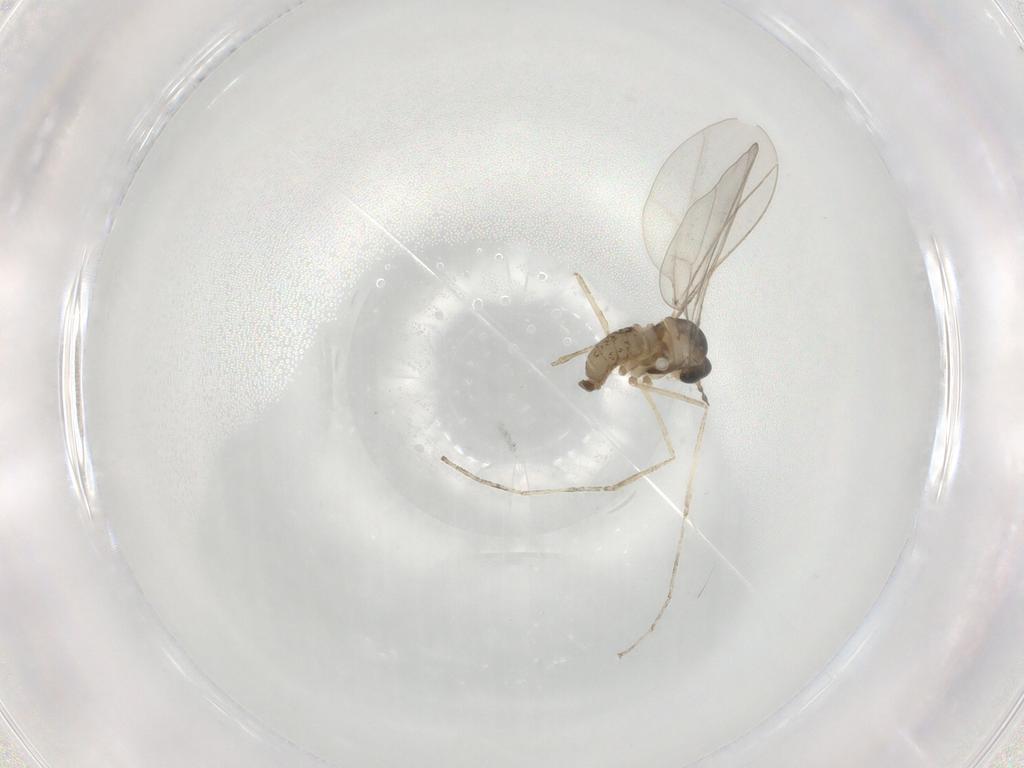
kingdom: Animalia
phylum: Arthropoda
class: Insecta
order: Diptera
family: Cecidomyiidae
